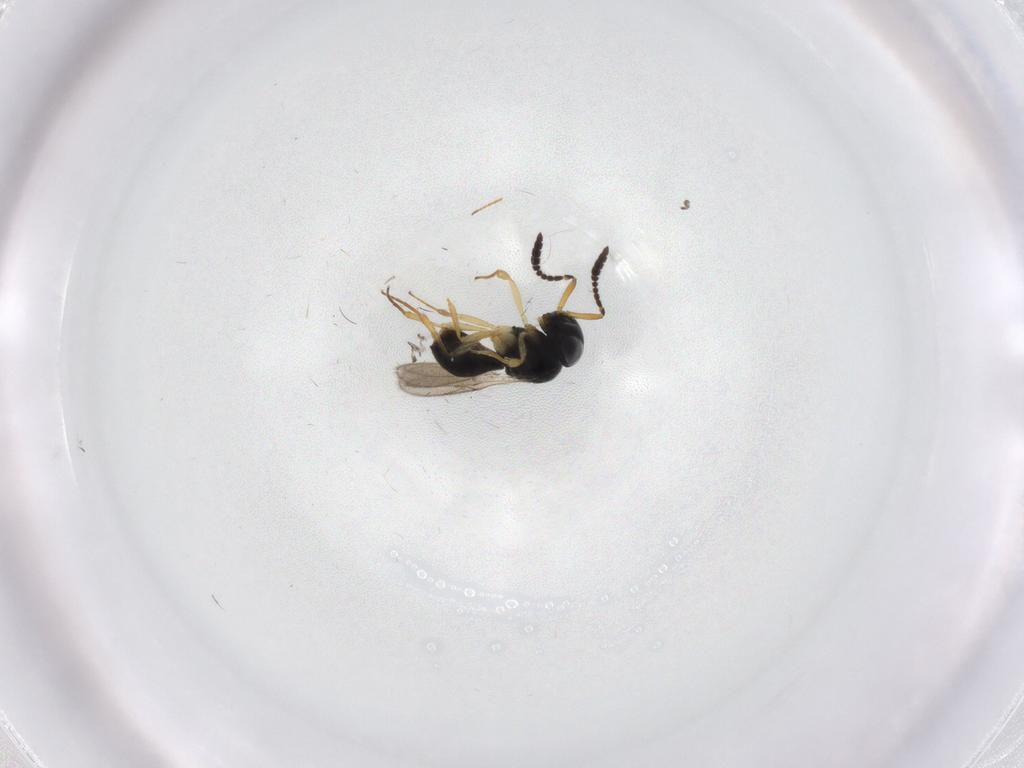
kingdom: Animalia
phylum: Arthropoda
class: Insecta
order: Hymenoptera
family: Scelionidae
